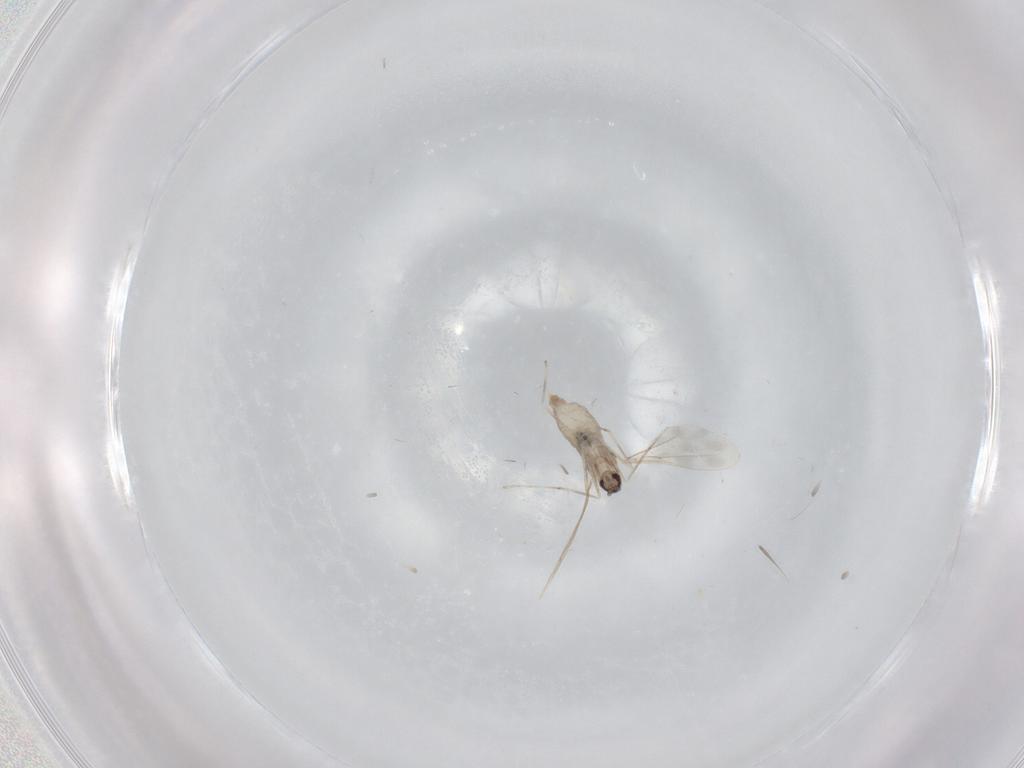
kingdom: Animalia
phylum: Arthropoda
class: Insecta
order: Diptera
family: Cecidomyiidae
